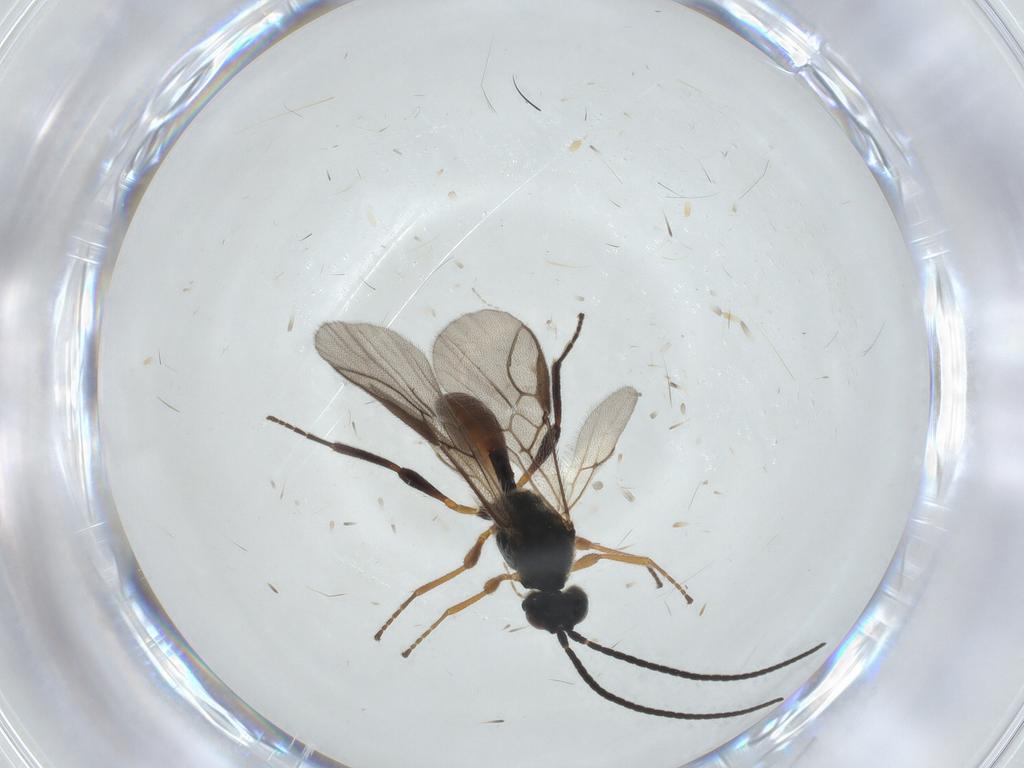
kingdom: Animalia
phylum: Arthropoda
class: Insecta
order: Hymenoptera
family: Braconidae
